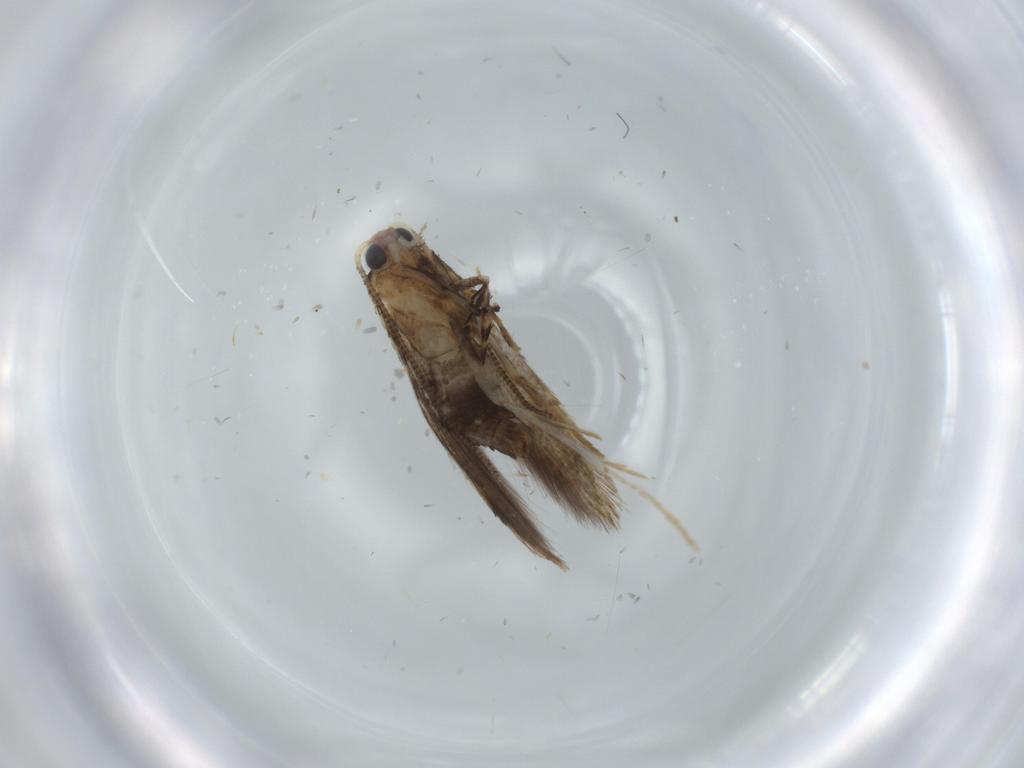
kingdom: Animalia
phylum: Arthropoda
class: Insecta
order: Lepidoptera
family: Tineidae
